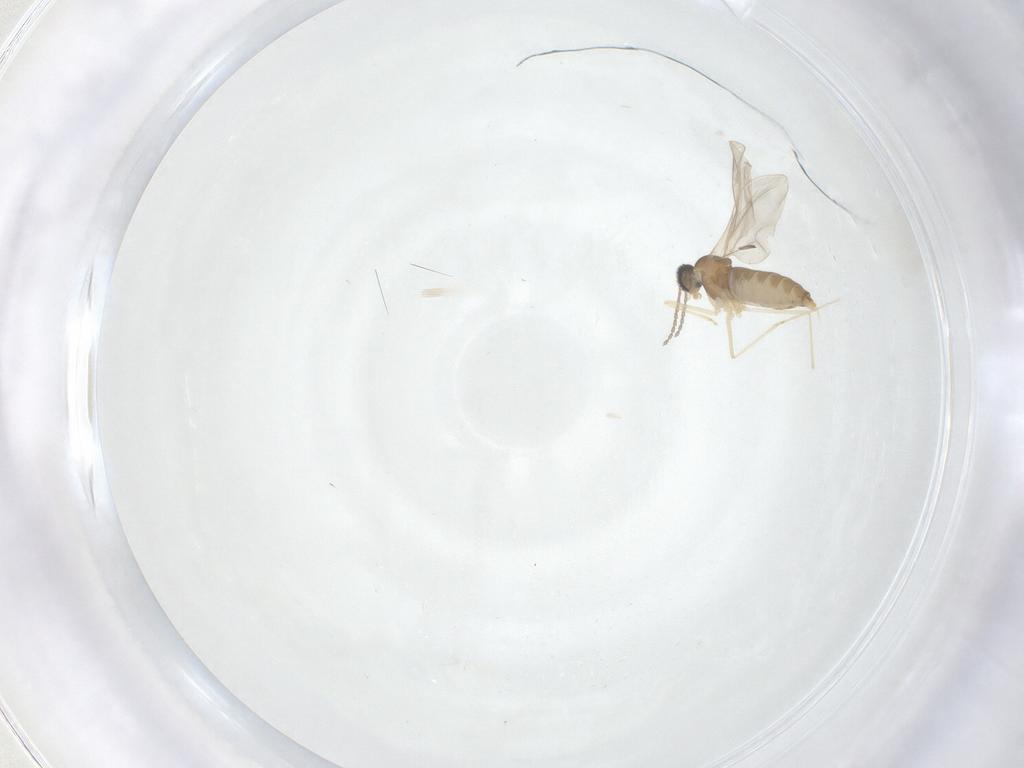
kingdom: Animalia
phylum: Arthropoda
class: Insecta
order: Diptera
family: Cecidomyiidae
